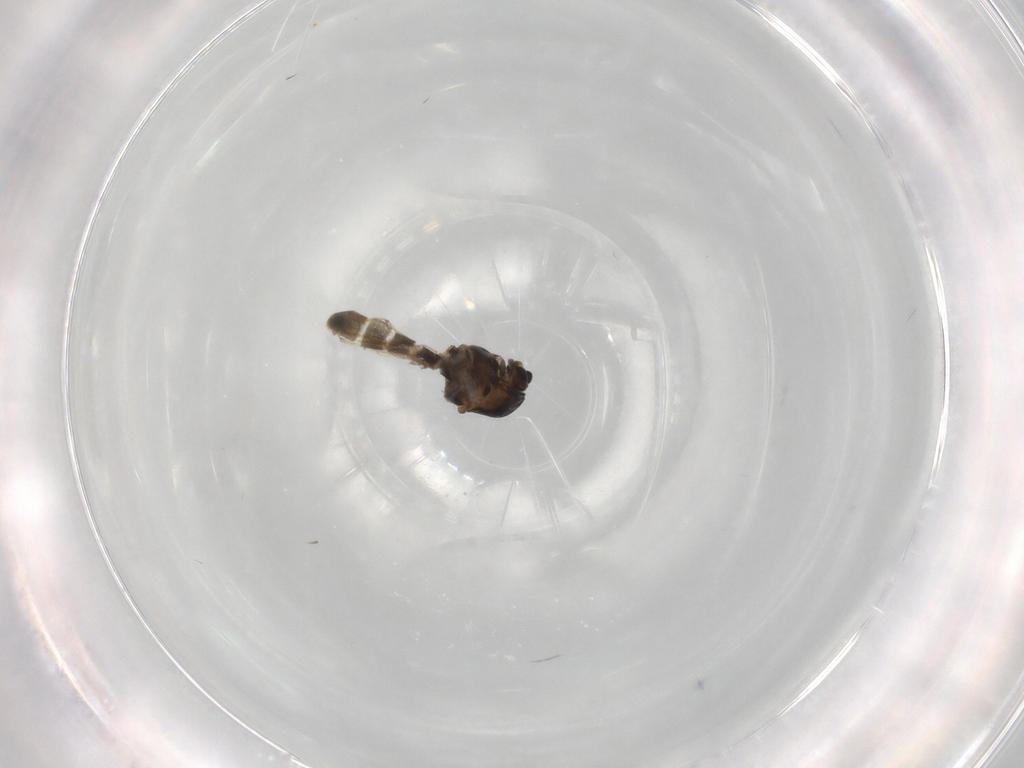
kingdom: Animalia
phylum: Arthropoda
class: Insecta
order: Diptera
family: Chironomidae
